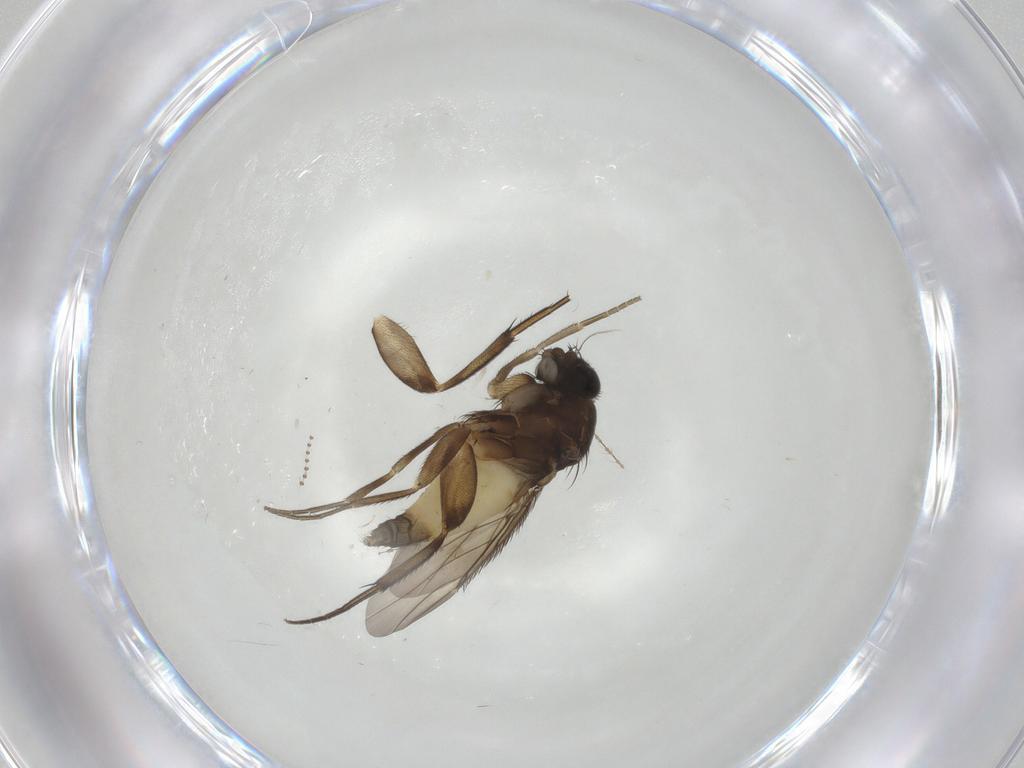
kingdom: Animalia
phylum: Arthropoda
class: Insecta
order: Diptera
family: Phoridae
